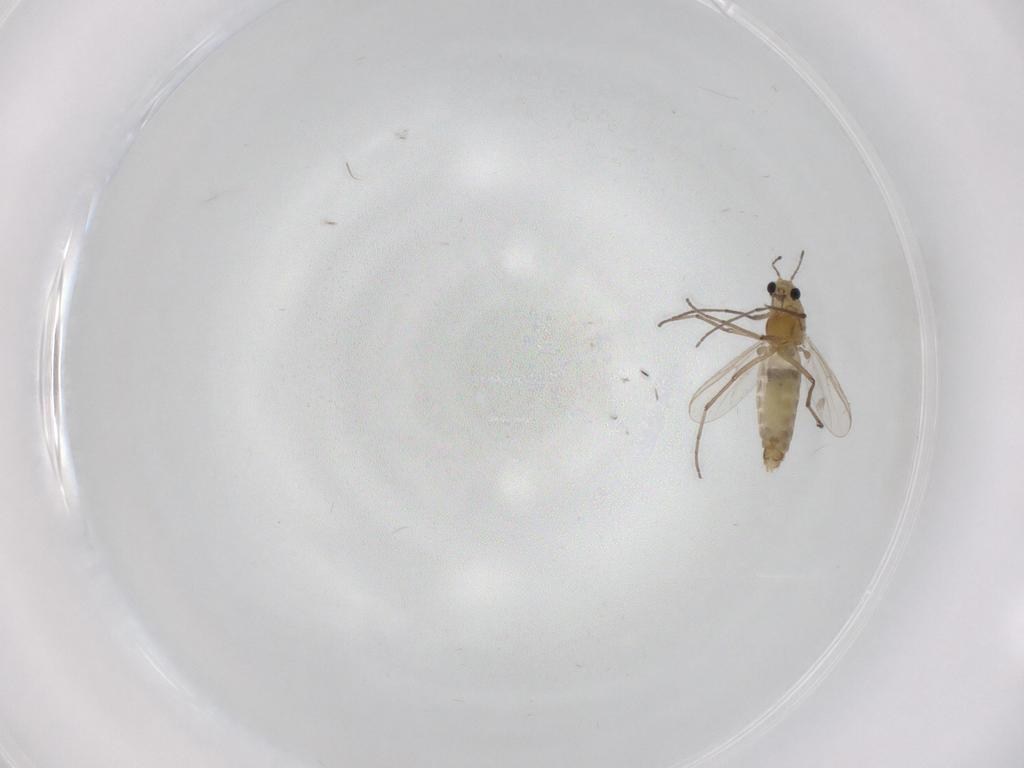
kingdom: Animalia
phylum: Arthropoda
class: Insecta
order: Diptera
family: Chironomidae
